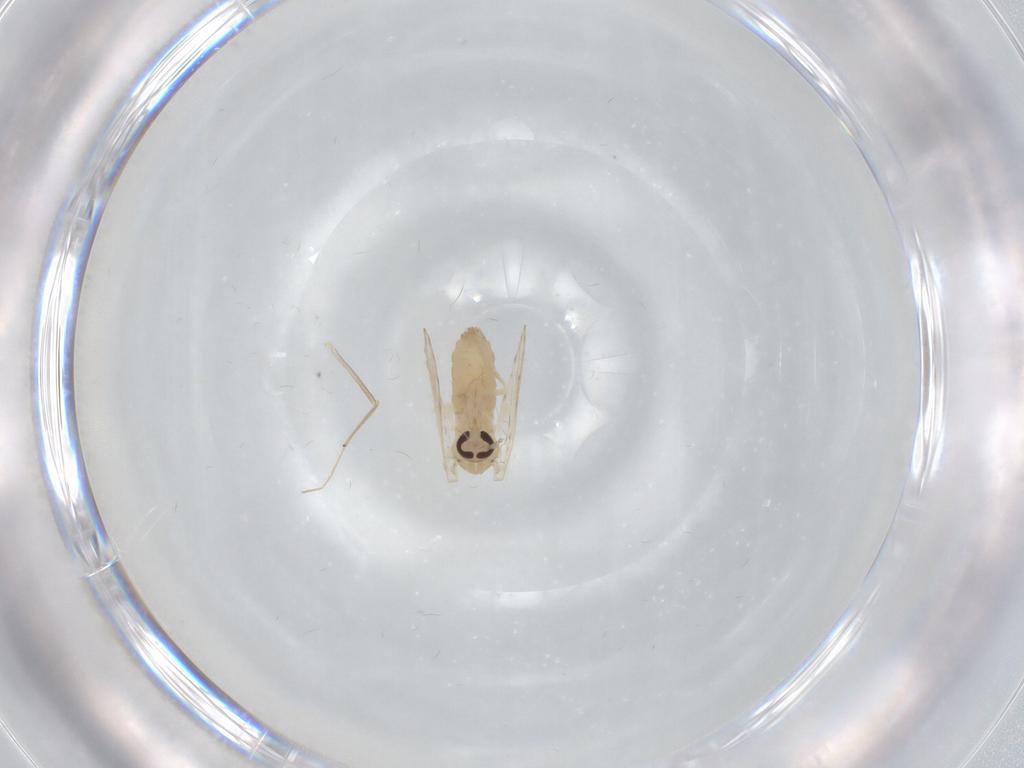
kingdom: Animalia
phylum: Arthropoda
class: Insecta
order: Diptera
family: Psychodidae
